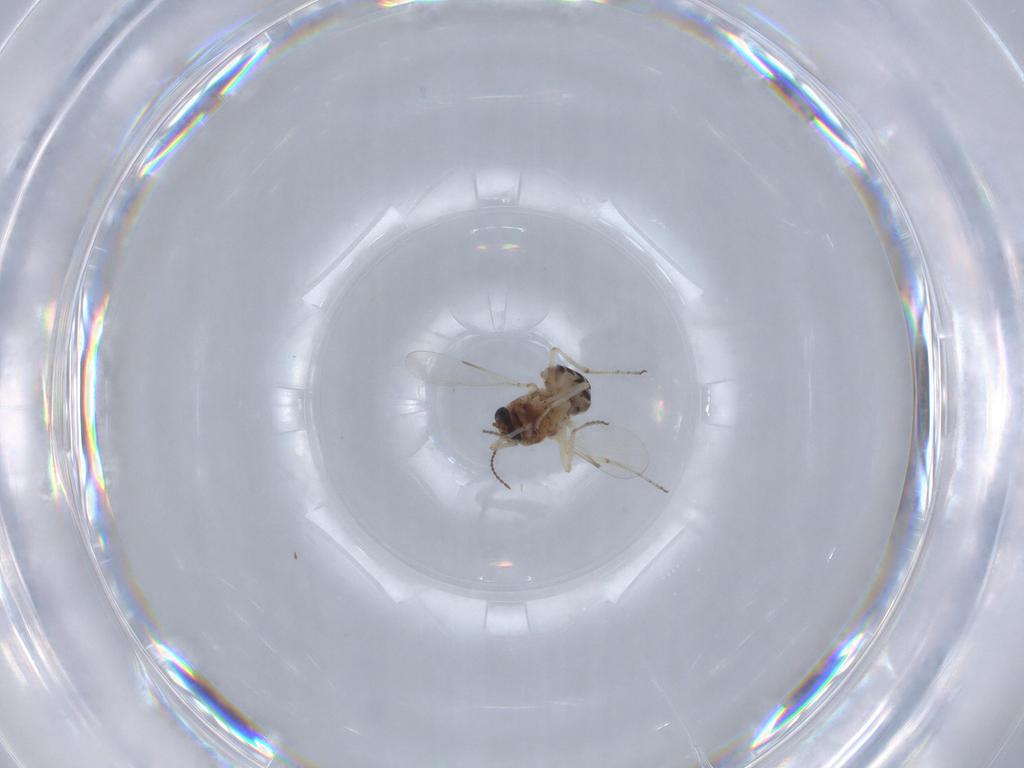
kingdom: Animalia
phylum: Arthropoda
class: Insecta
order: Diptera
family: Ceratopogonidae
